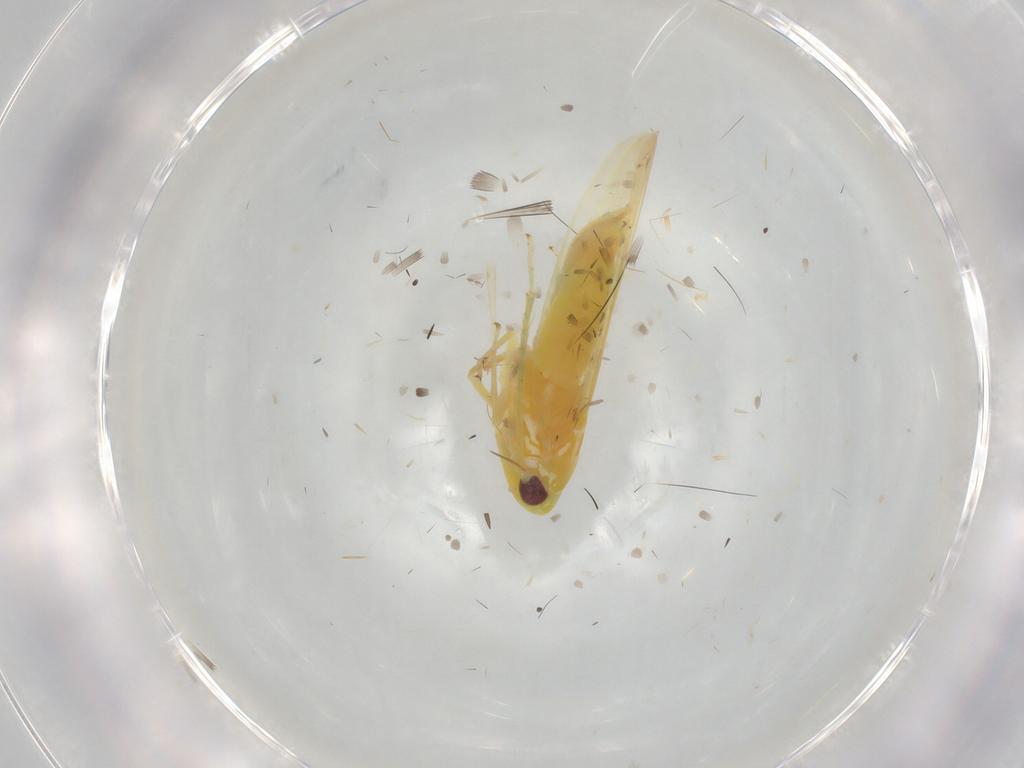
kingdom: Animalia
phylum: Arthropoda
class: Insecta
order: Hemiptera
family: Cicadellidae
